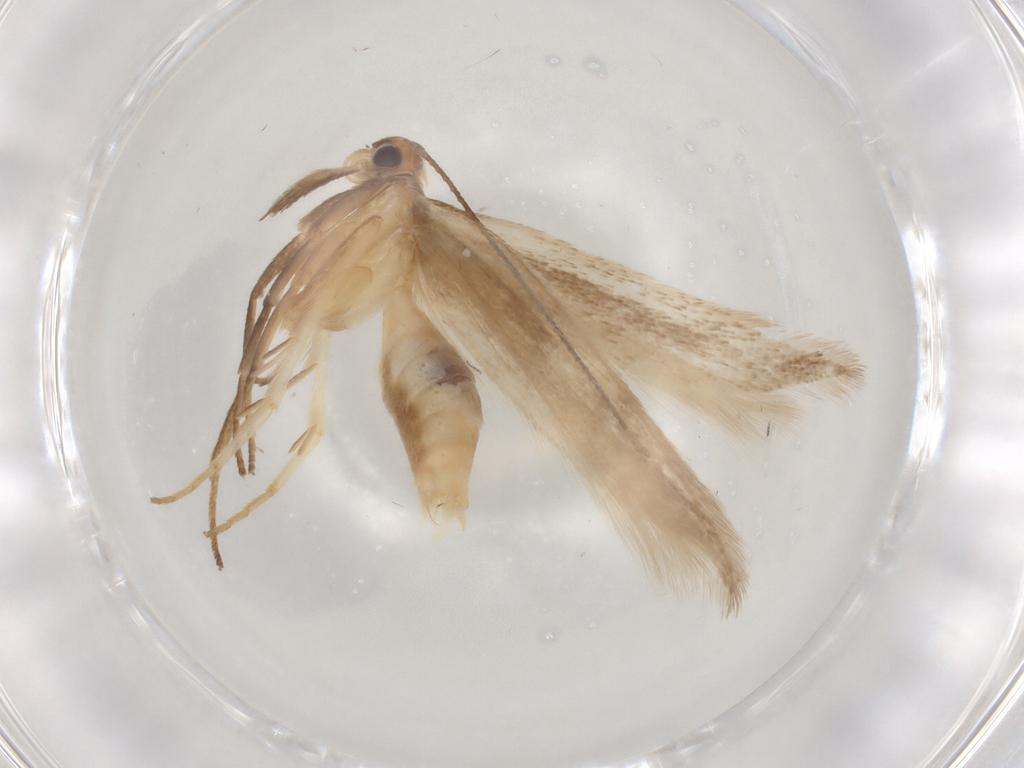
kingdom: Animalia
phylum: Arthropoda
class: Insecta
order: Lepidoptera
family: Gelechiidae
